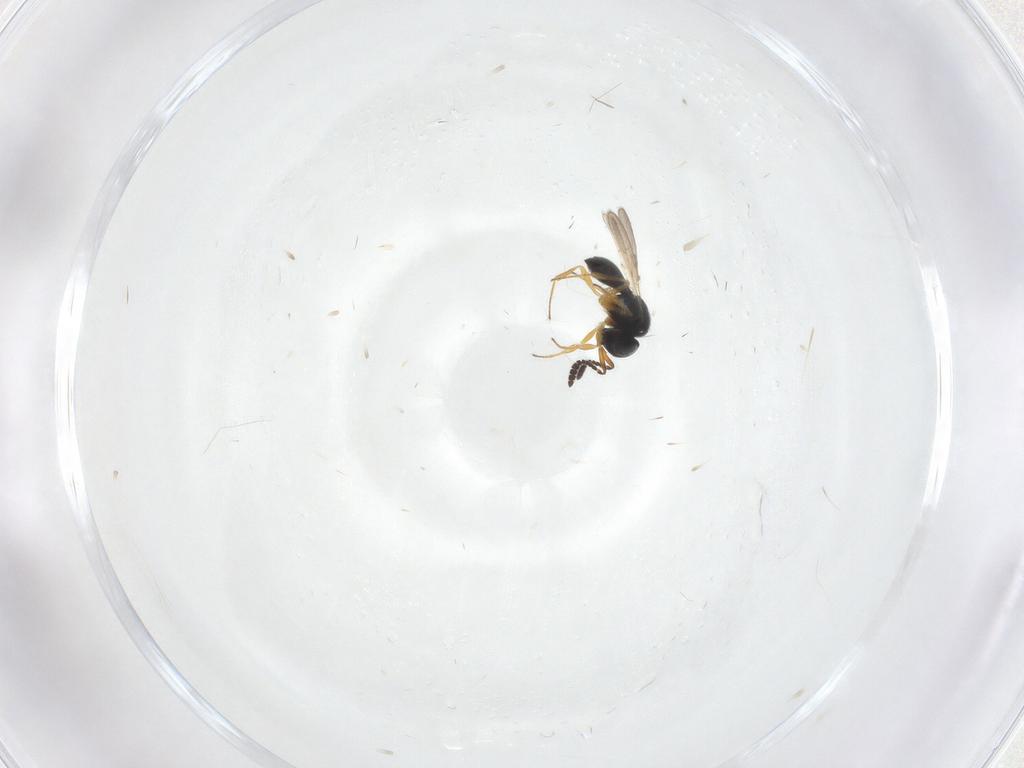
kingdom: Animalia
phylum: Arthropoda
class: Insecta
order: Hymenoptera
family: Scelionidae
